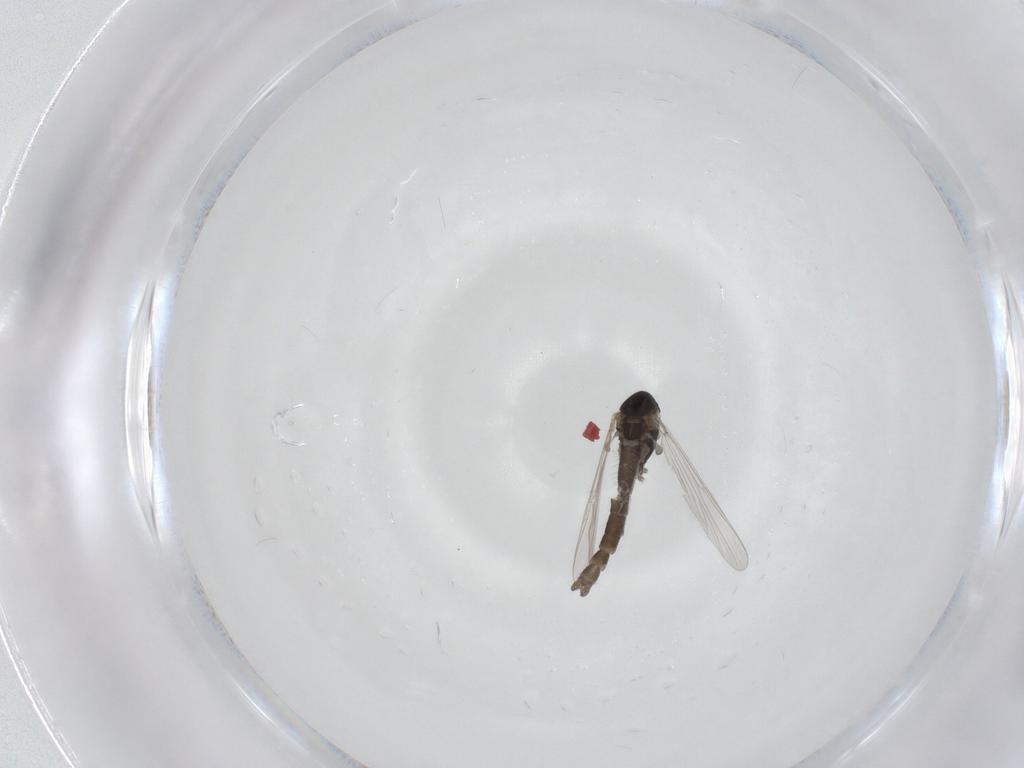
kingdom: Animalia
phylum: Arthropoda
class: Insecta
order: Diptera
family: Chironomidae
